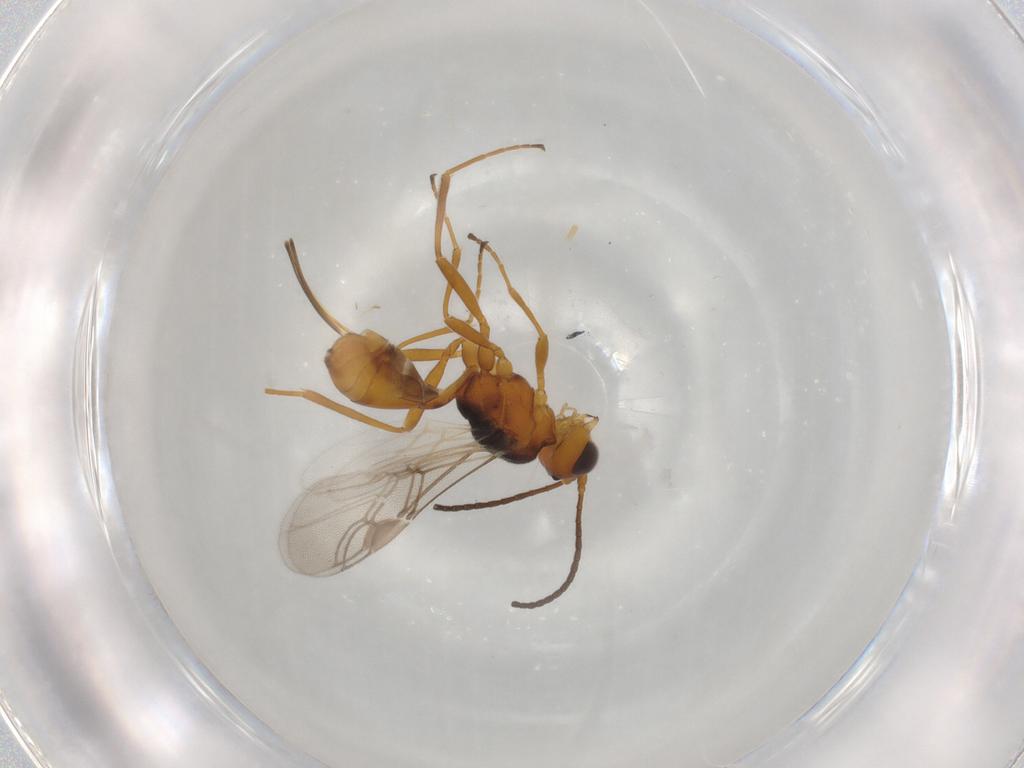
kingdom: Animalia
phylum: Arthropoda
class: Insecta
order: Hymenoptera
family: Braconidae
